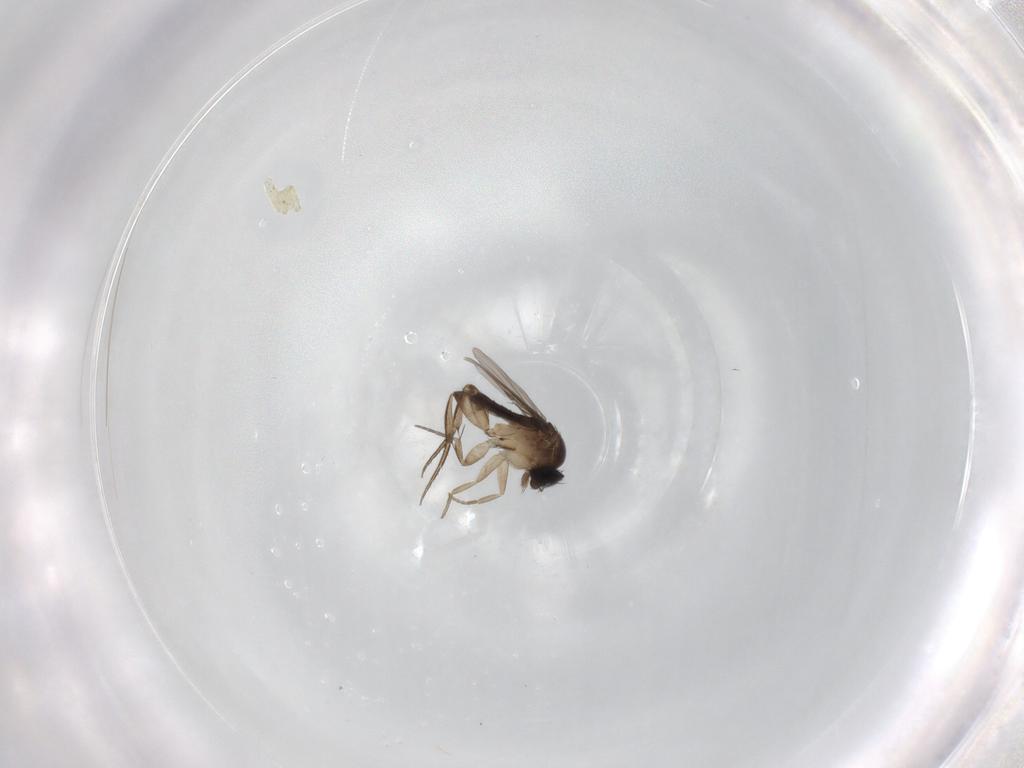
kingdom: Animalia
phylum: Arthropoda
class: Insecta
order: Diptera
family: Phoridae
